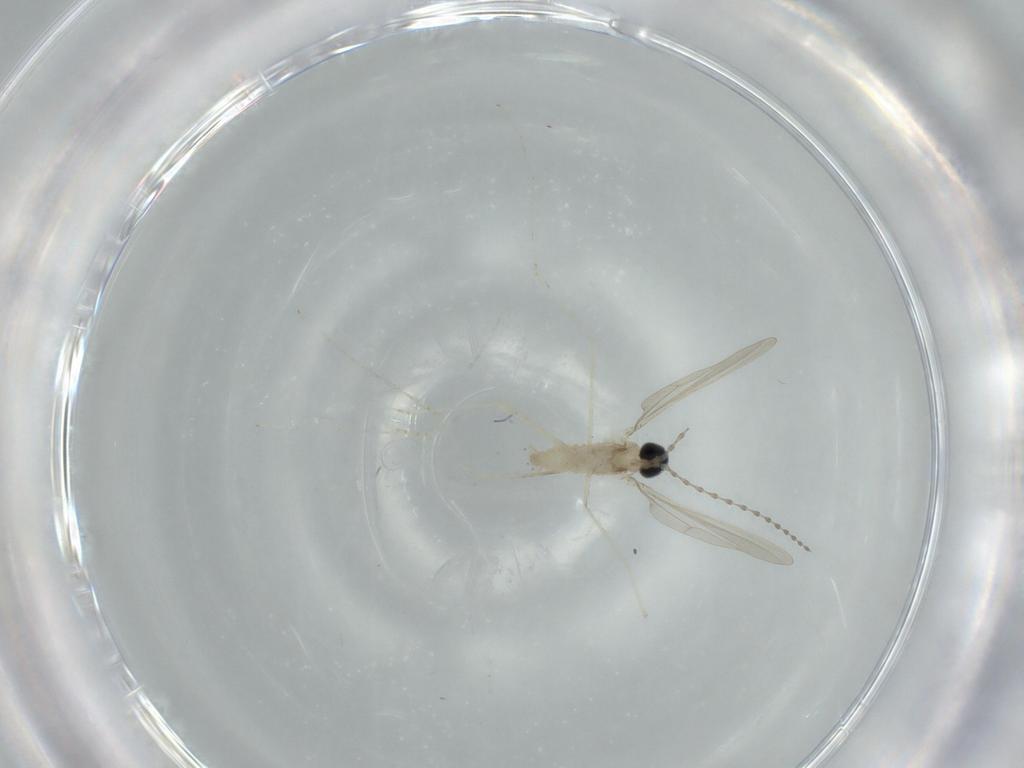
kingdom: Animalia
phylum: Arthropoda
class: Insecta
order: Diptera
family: Cecidomyiidae
